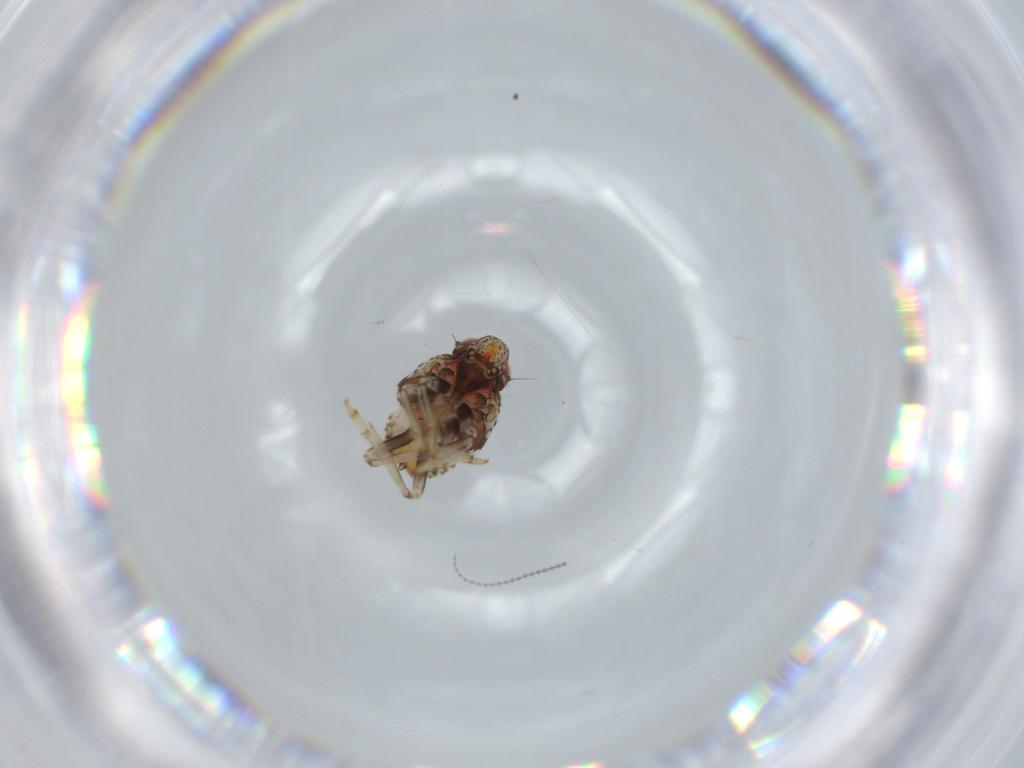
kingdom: Animalia
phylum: Arthropoda
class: Insecta
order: Hemiptera
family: Issidae
